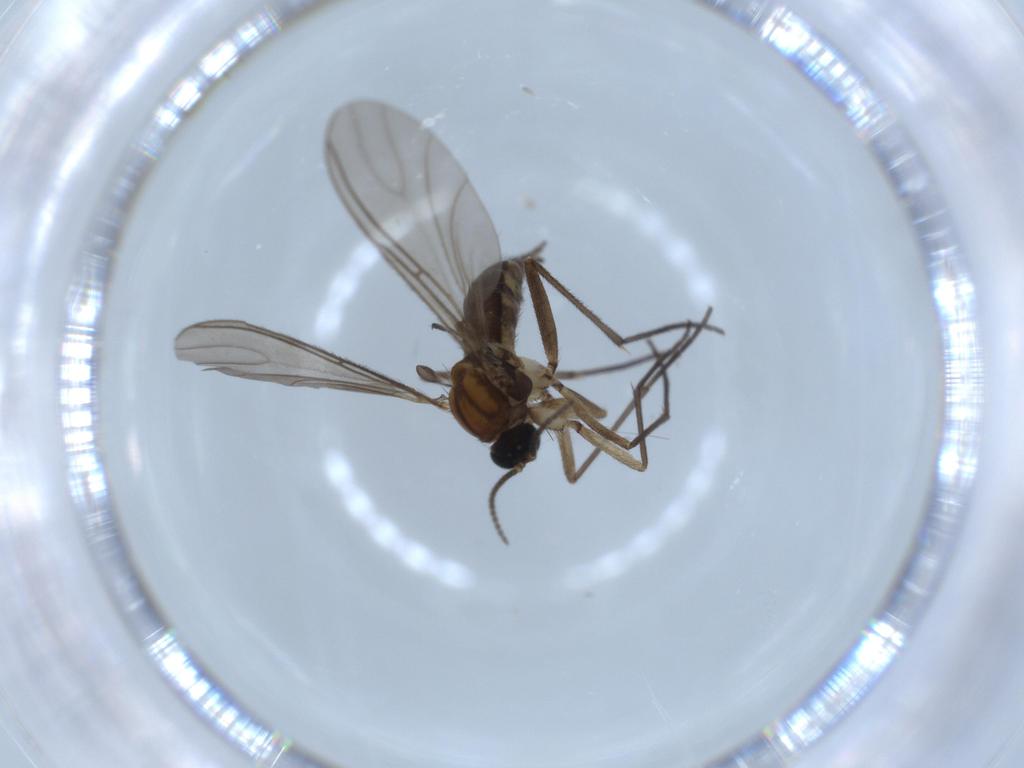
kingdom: Animalia
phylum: Arthropoda
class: Insecta
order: Diptera
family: Sciaridae
